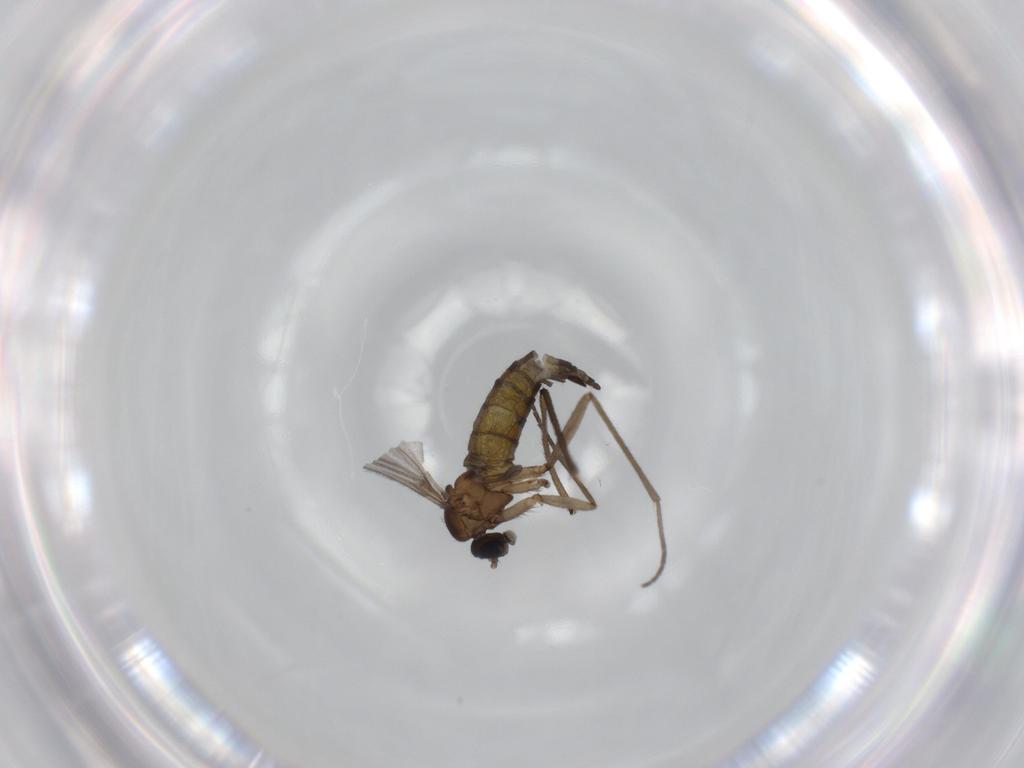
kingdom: Animalia
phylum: Arthropoda
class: Insecta
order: Diptera
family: Sciaridae
